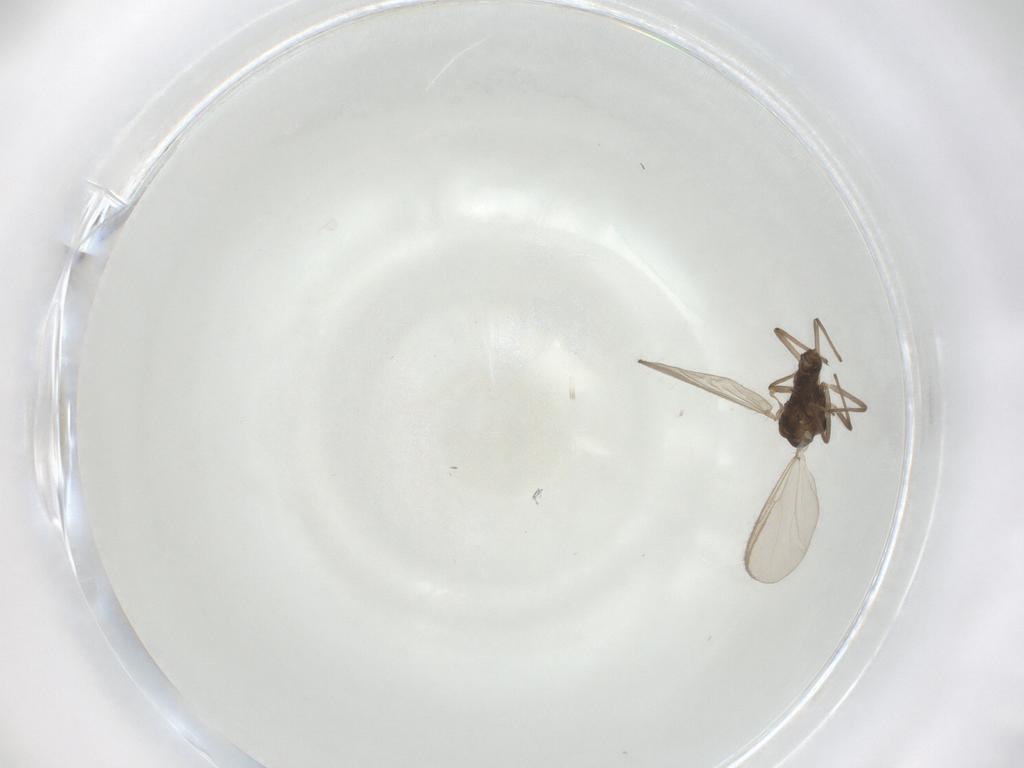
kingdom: Animalia
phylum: Arthropoda
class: Insecta
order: Diptera
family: Chironomidae
